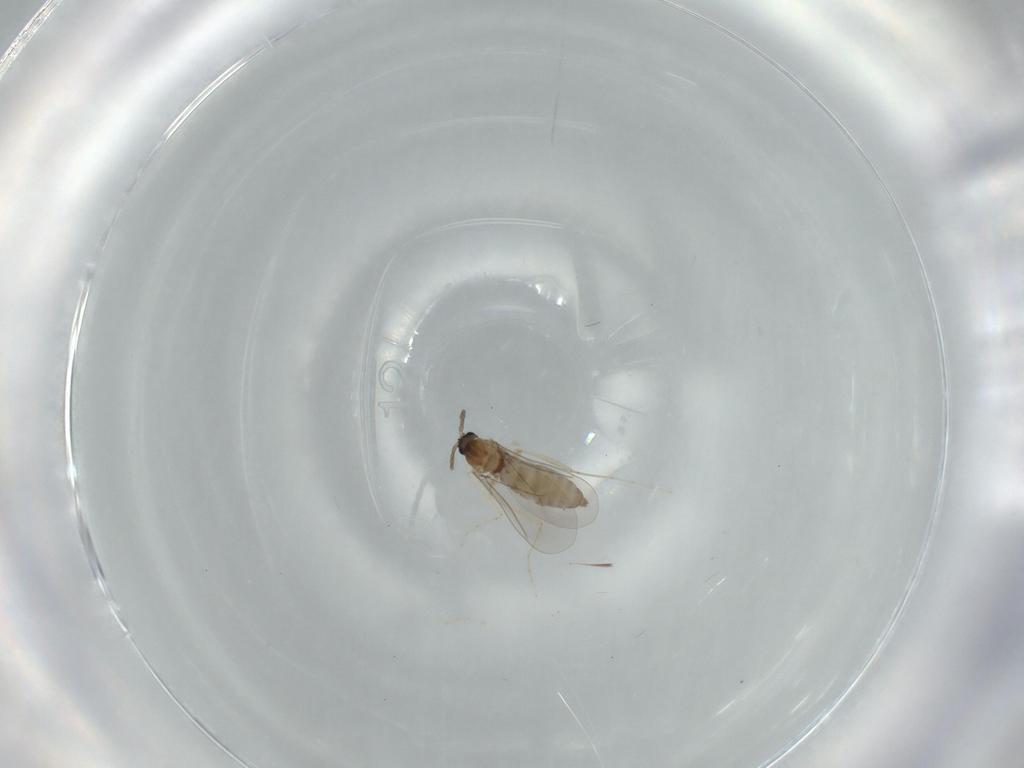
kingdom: Animalia
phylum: Arthropoda
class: Insecta
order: Diptera
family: Cecidomyiidae
